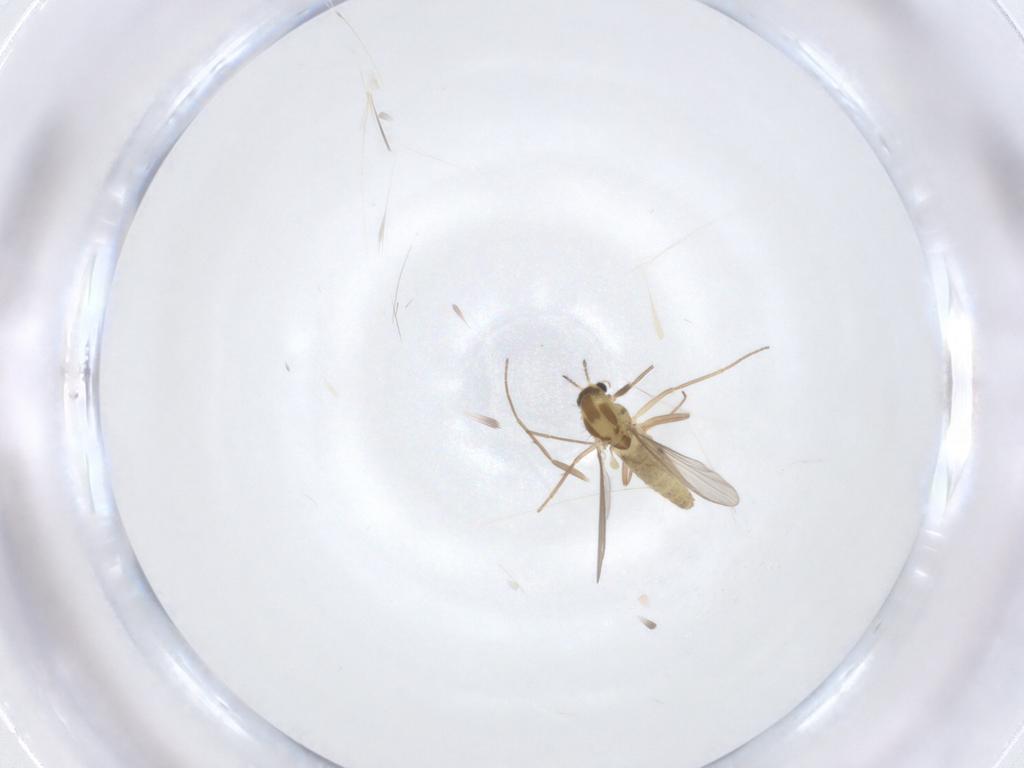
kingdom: Animalia
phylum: Arthropoda
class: Insecta
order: Diptera
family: Chironomidae
